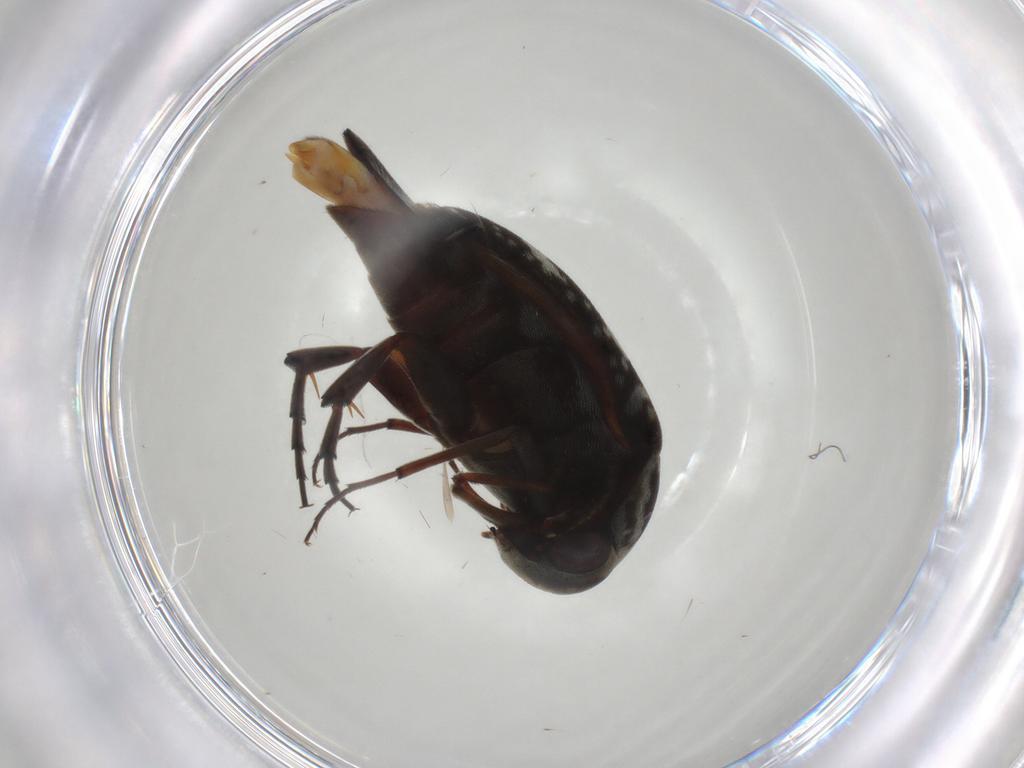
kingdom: Animalia
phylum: Arthropoda
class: Insecta
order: Coleoptera
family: Mordellidae
